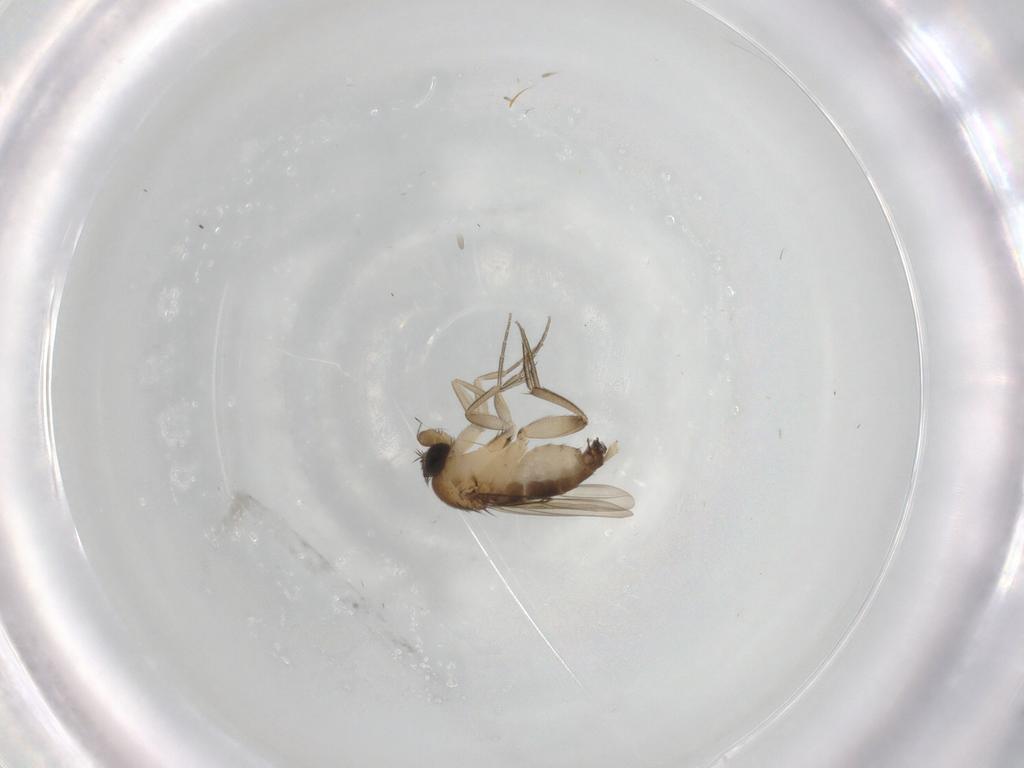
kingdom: Animalia
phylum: Arthropoda
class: Insecta
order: Diptera
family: Phoridae
